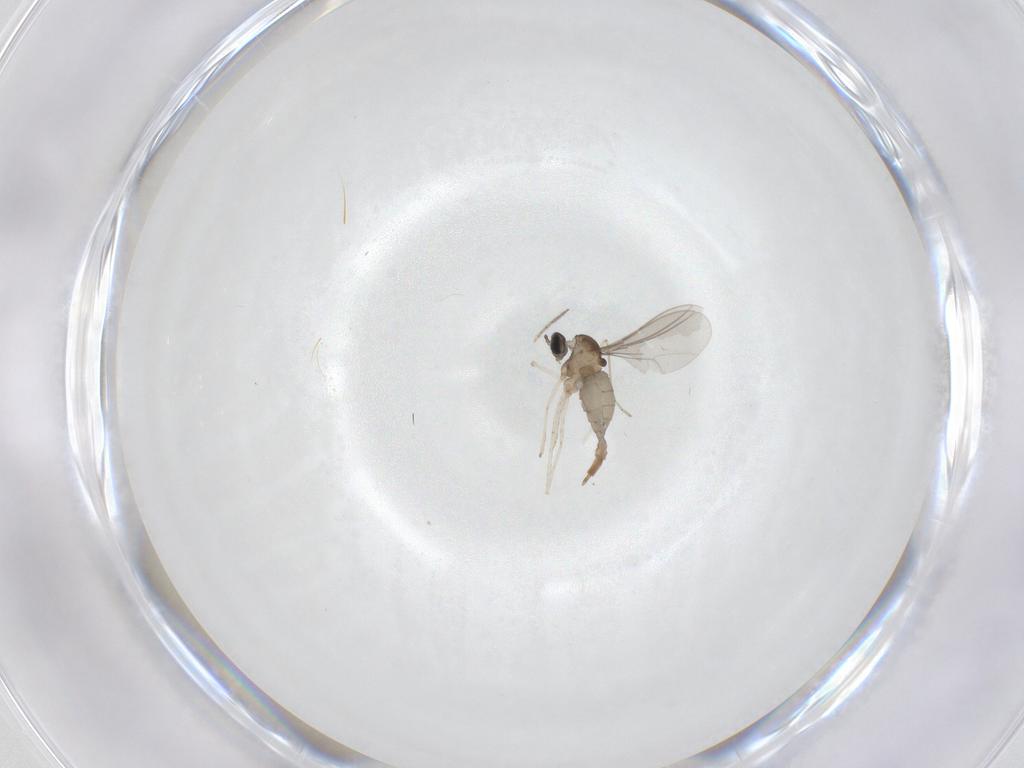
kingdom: Animalia
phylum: Arthropoda
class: Insecta
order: Diptera
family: Cecidomyiidae
